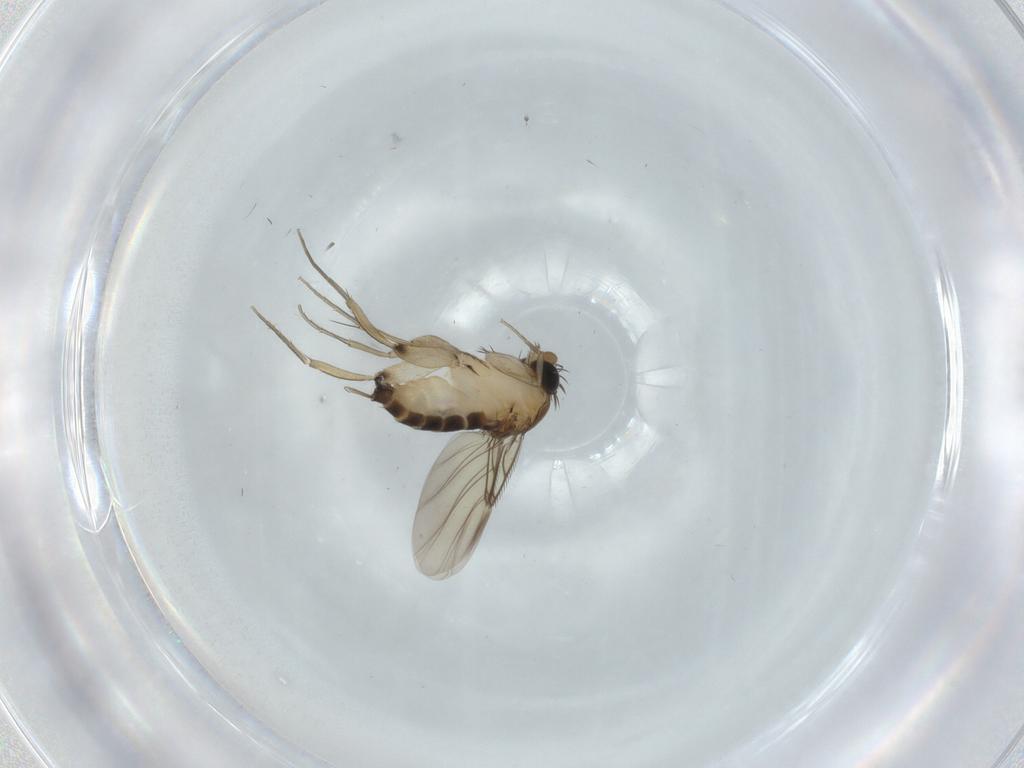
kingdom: Animalia
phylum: Arthropoda
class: Insecta
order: Diptera
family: Phoridae
